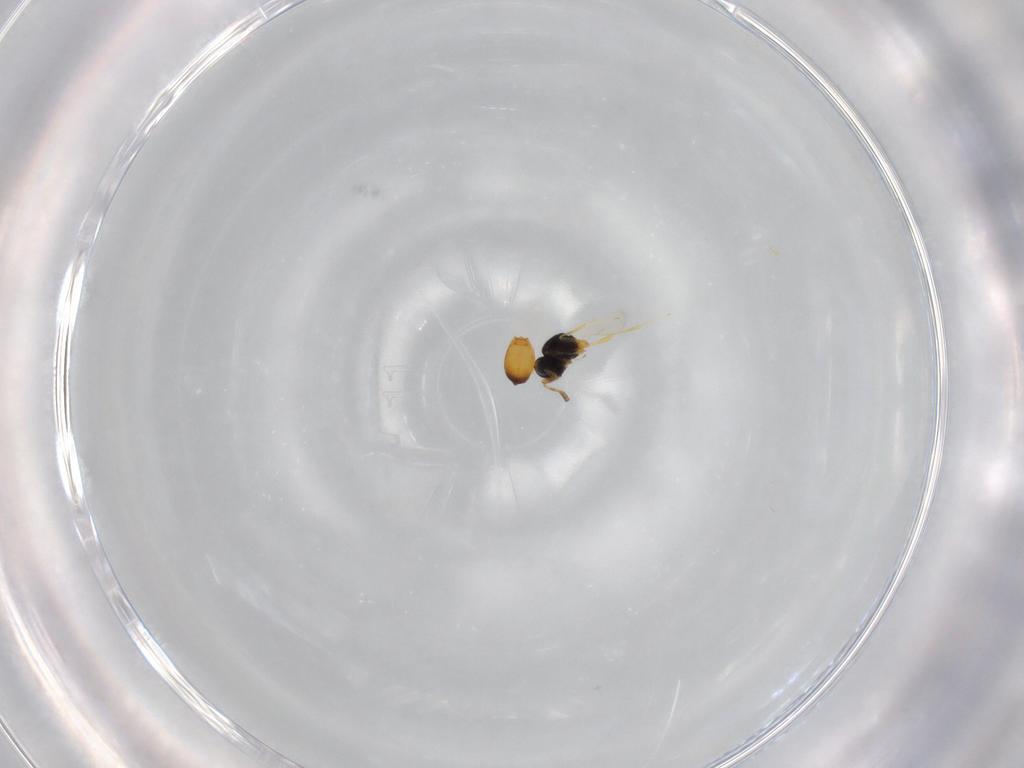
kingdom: Animalia
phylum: Arthropoda
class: Insecta
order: Hymenoptera
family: Scelionidae
